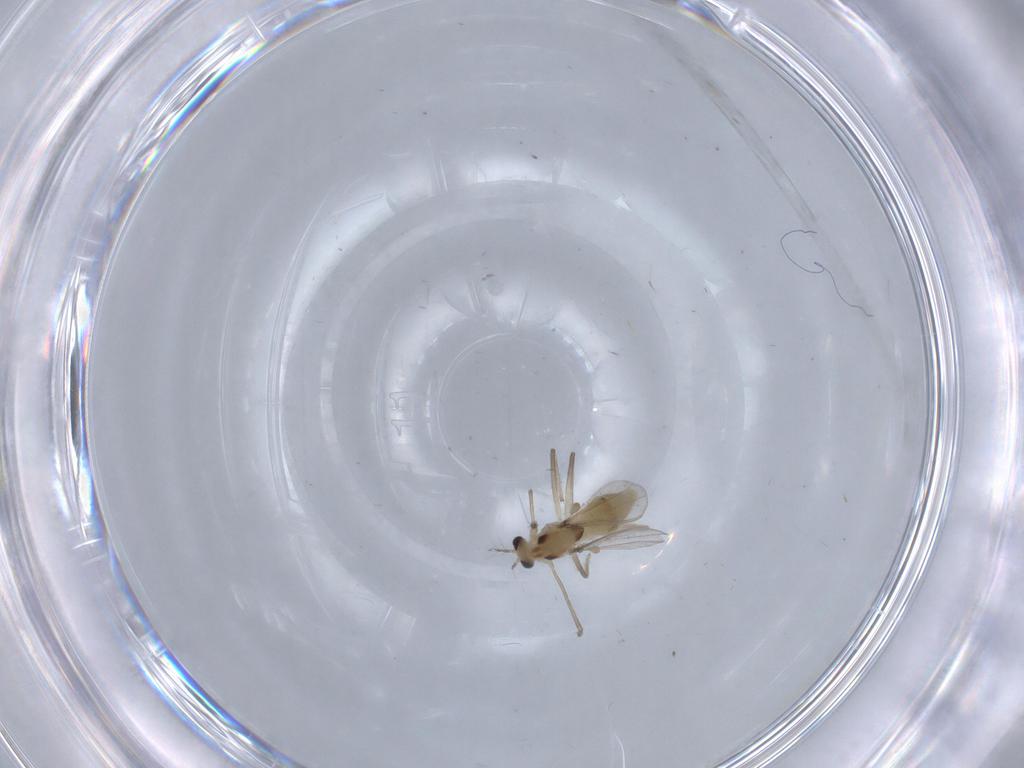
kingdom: Animalia
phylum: Arthropoda
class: Insecta
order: Diptera
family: Chironomidae
